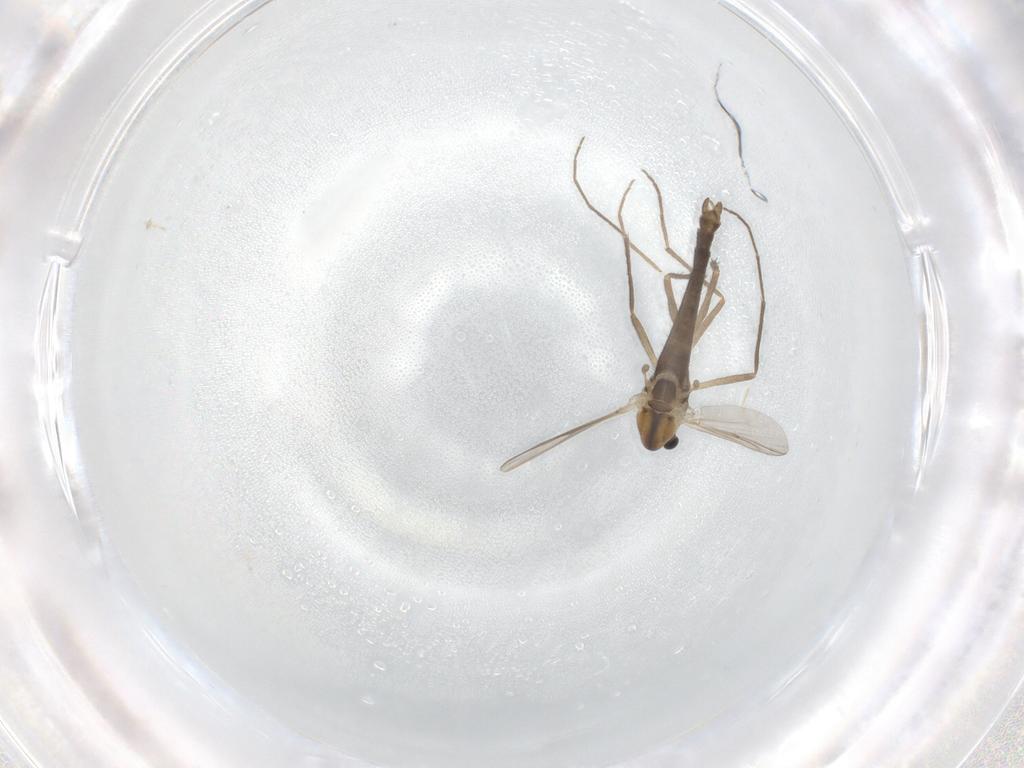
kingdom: Animalia
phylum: Arthropoda
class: Insecta
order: Diptera
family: Chironomidae
